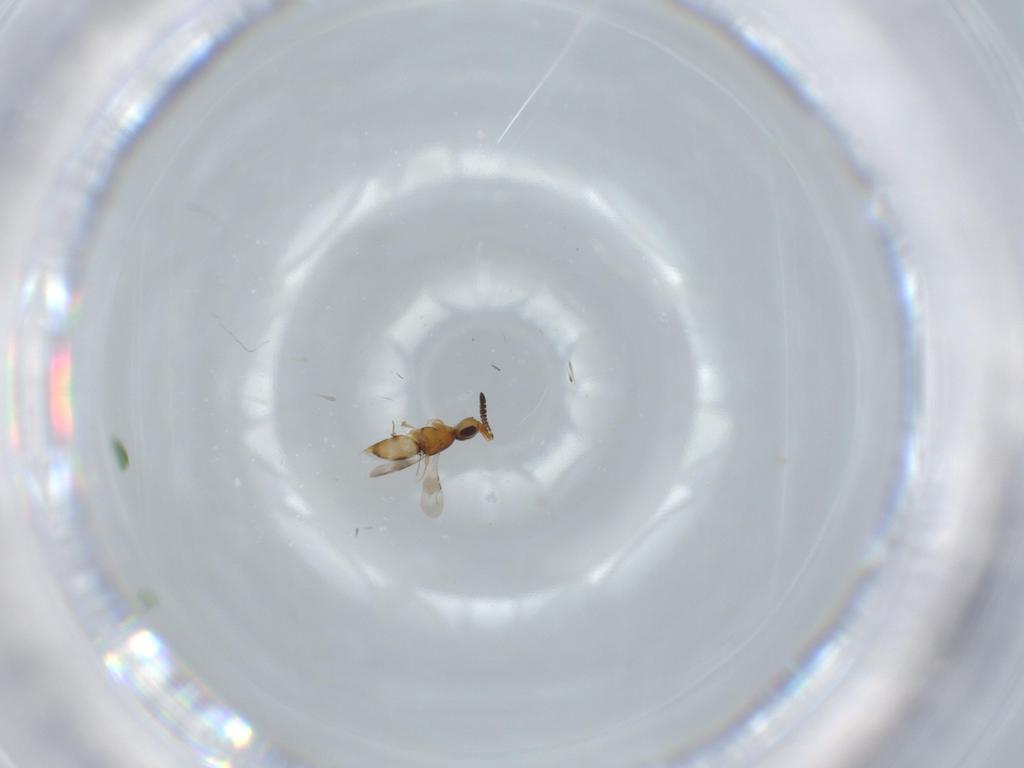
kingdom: Animalia
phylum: Arthropoda
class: Insecta
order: Hymenoptera
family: Ceraphronidae
